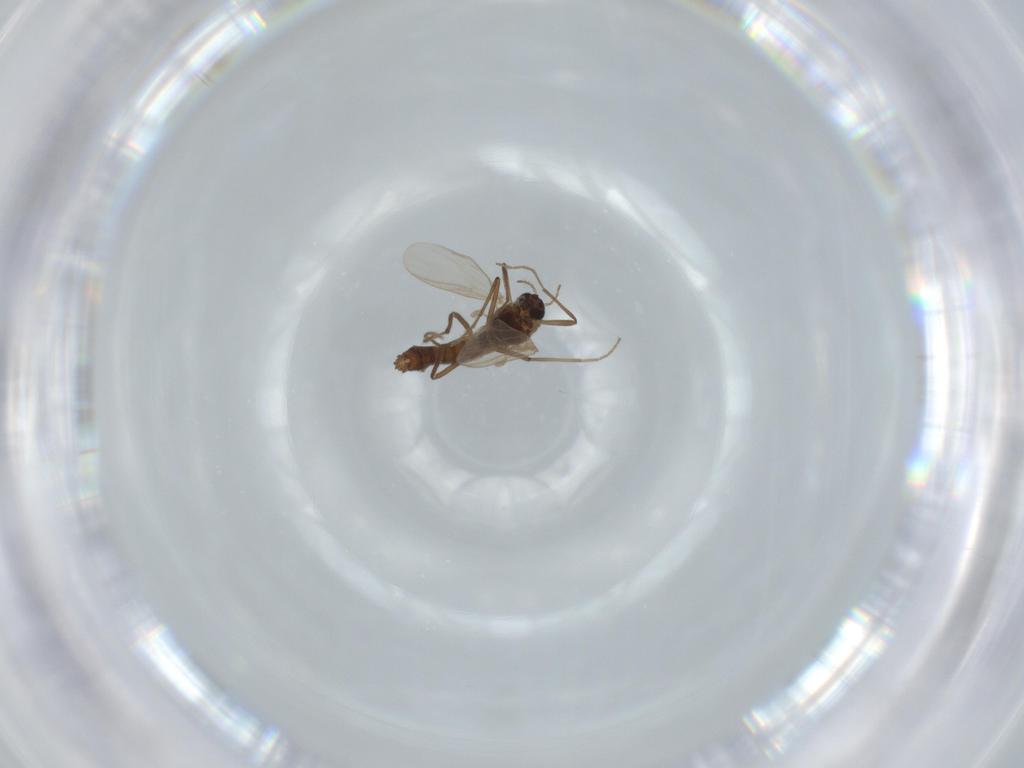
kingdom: Animalia
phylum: Arthropoda
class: Insecta
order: Diptera
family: Chironomidae
